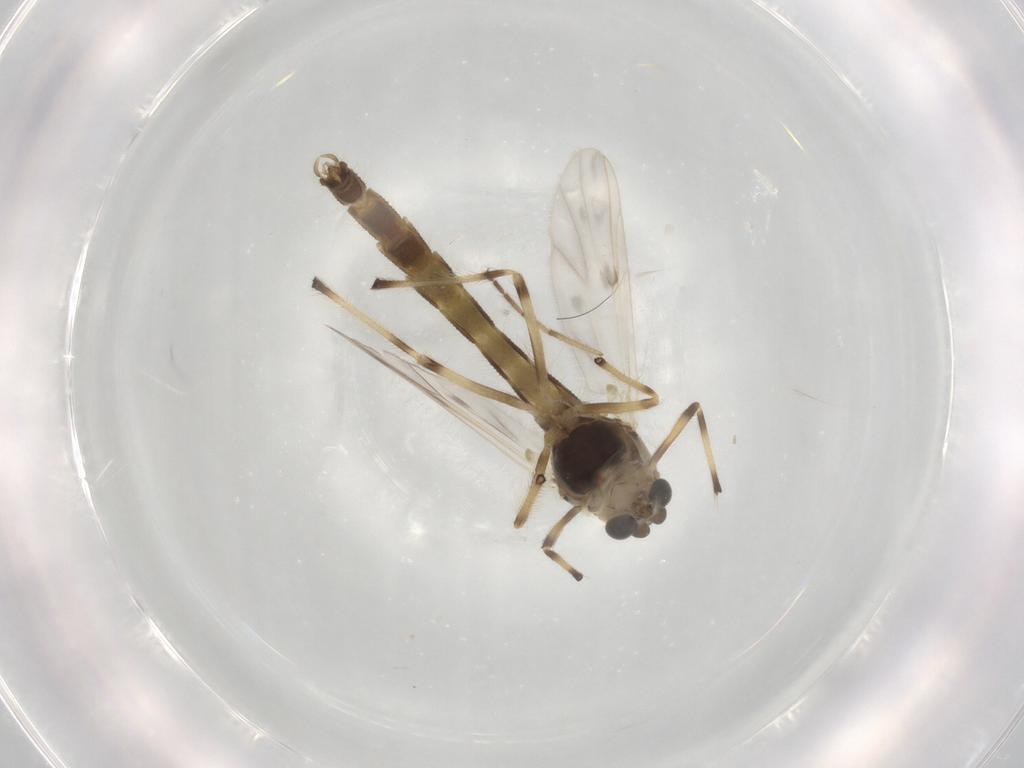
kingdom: Animalia
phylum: Arthropoda
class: Insecta
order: Diptera
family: Chironomidae
